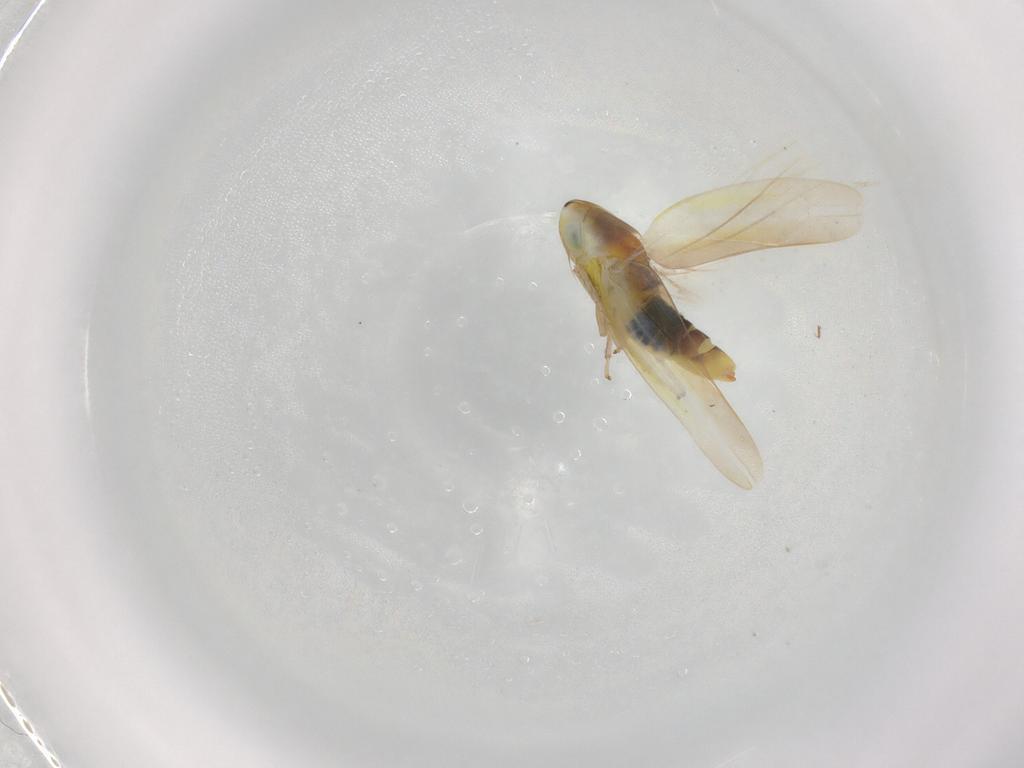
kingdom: Animalia
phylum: Arthropoda
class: Insecta
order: Hemiptera
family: Cicadellidae
